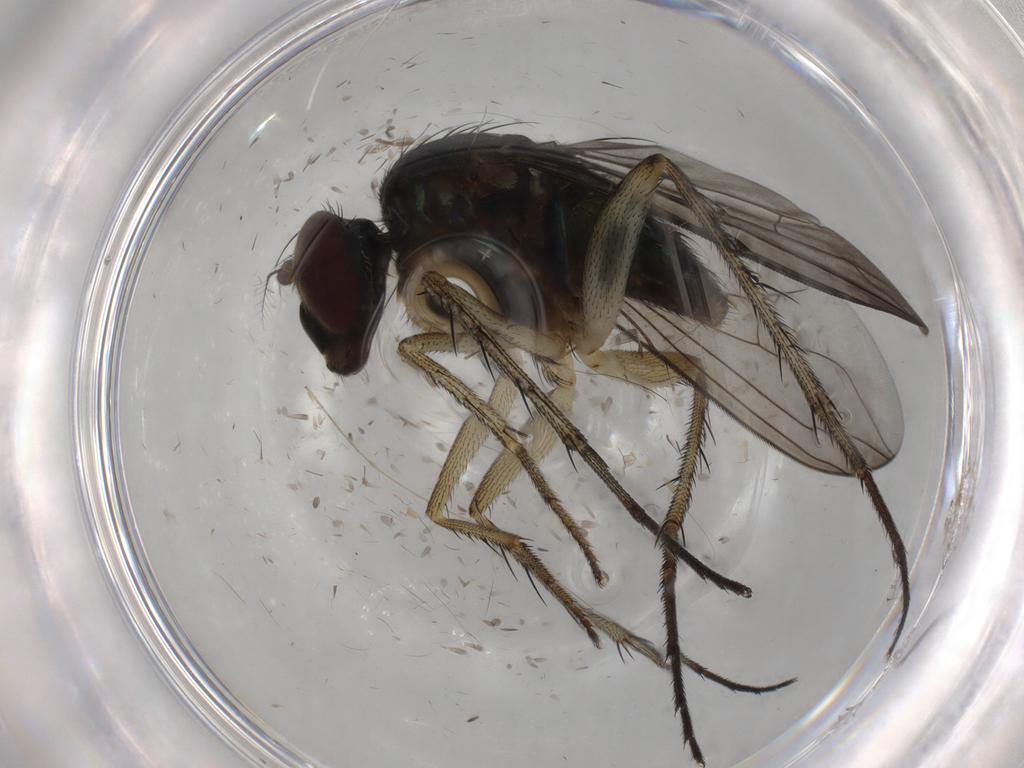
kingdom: Animalia
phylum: Arthropoda
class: Insecta
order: Diptera
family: Dolichopodidae
